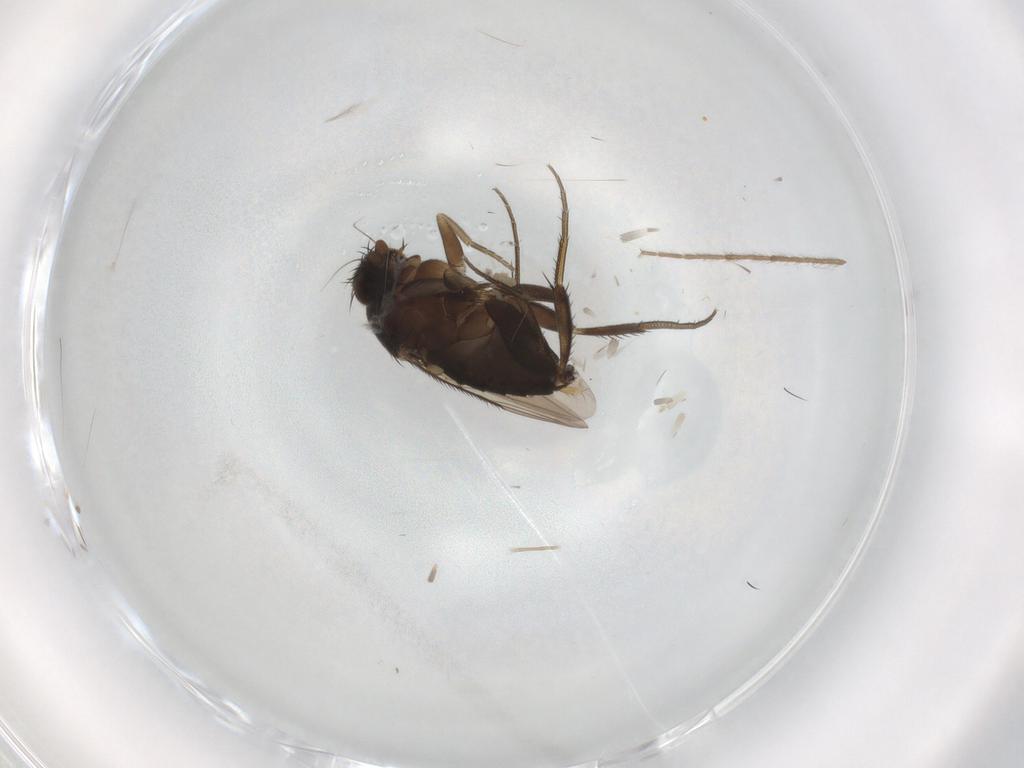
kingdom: Animalia
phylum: Arthropoda
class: Insecta
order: Diptera
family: Phoridae
